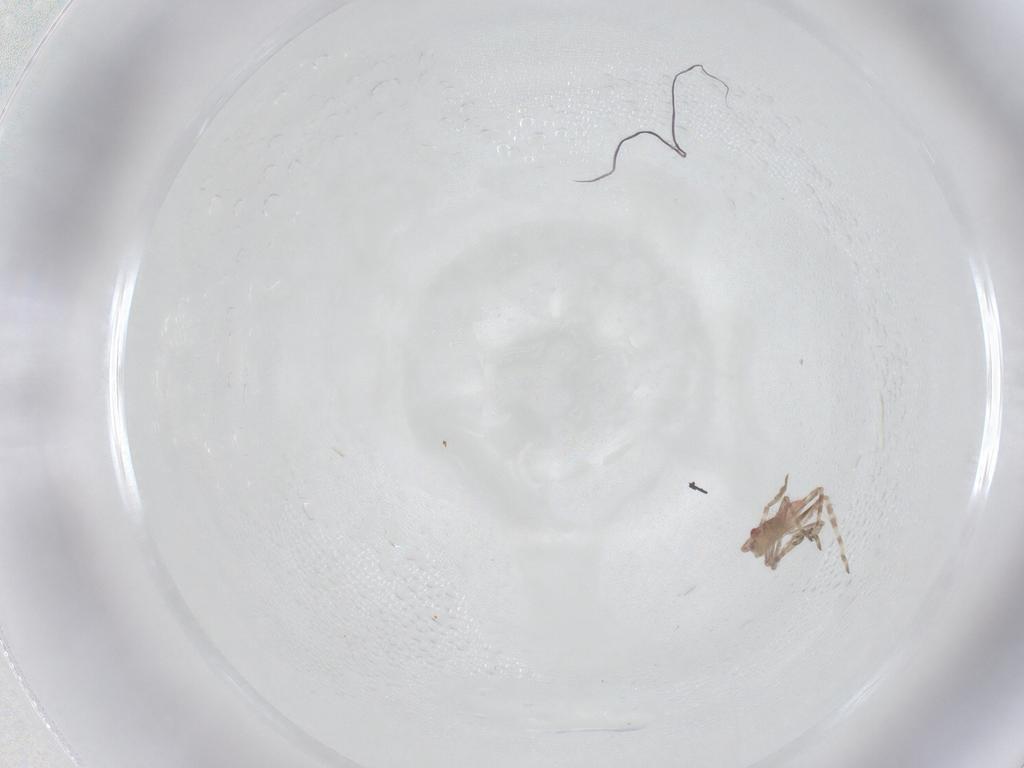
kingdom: Animalia
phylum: Arthropoda
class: Insecta
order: Hemiptera
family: Miridae
